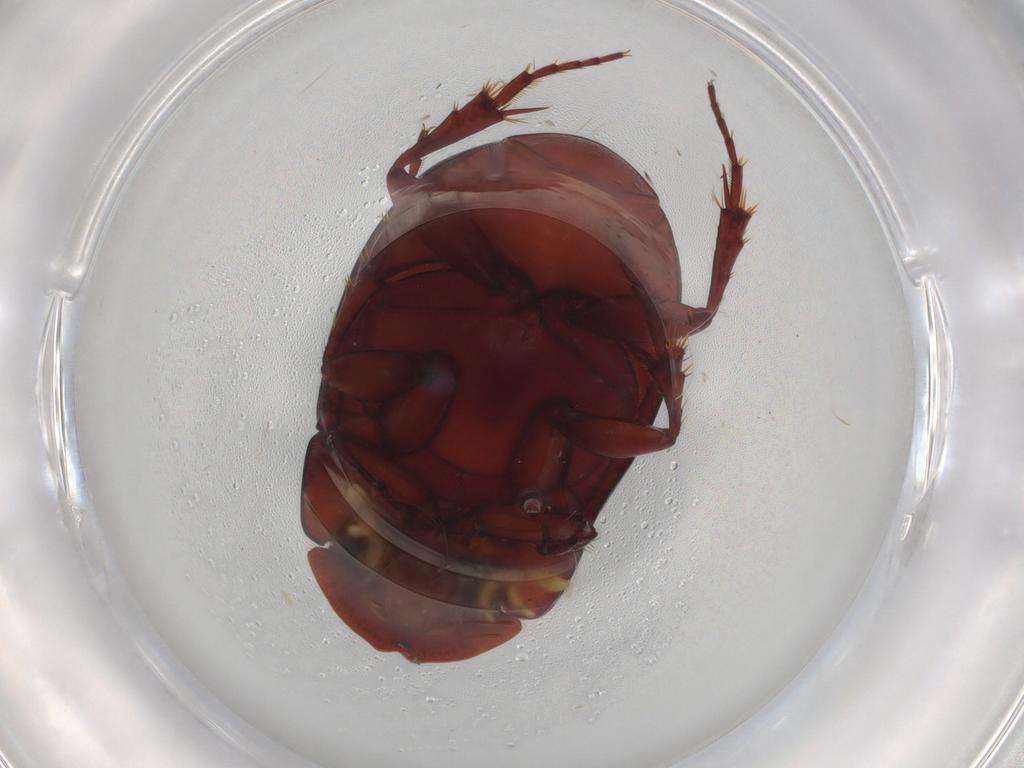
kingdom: Animalia
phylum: Arthropoda
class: Insecta
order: Coleoptera
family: Carabidae
